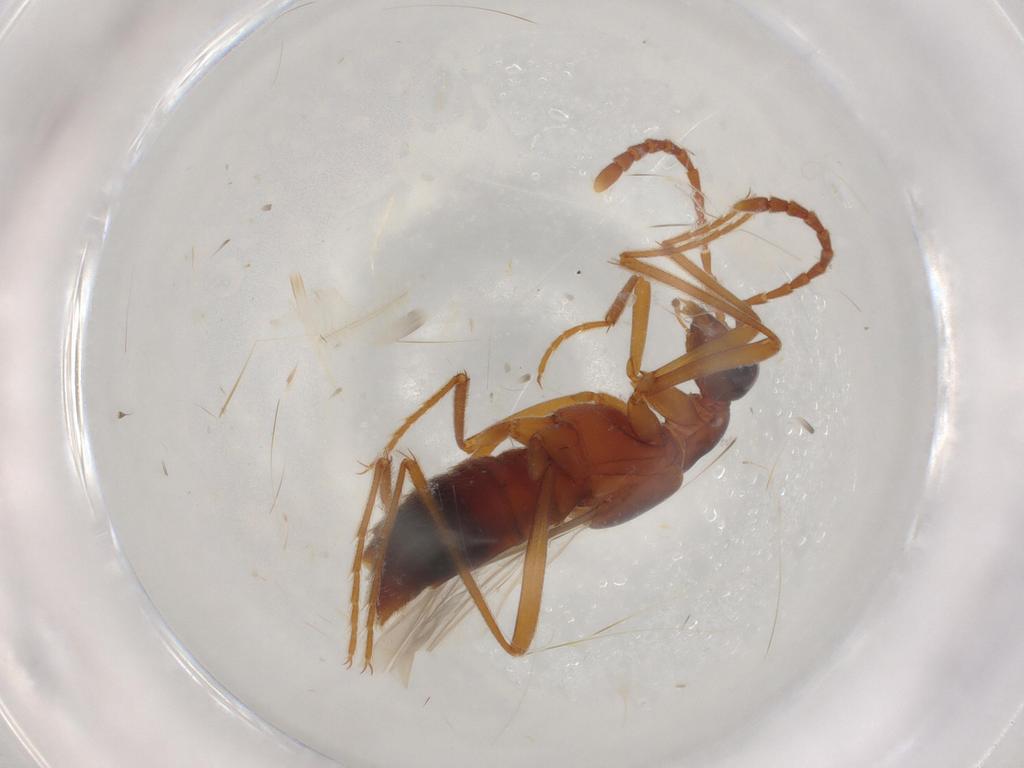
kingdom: Animalia
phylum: Arthropoda
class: Insecta
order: Coleoptera
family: Staphylinidae
